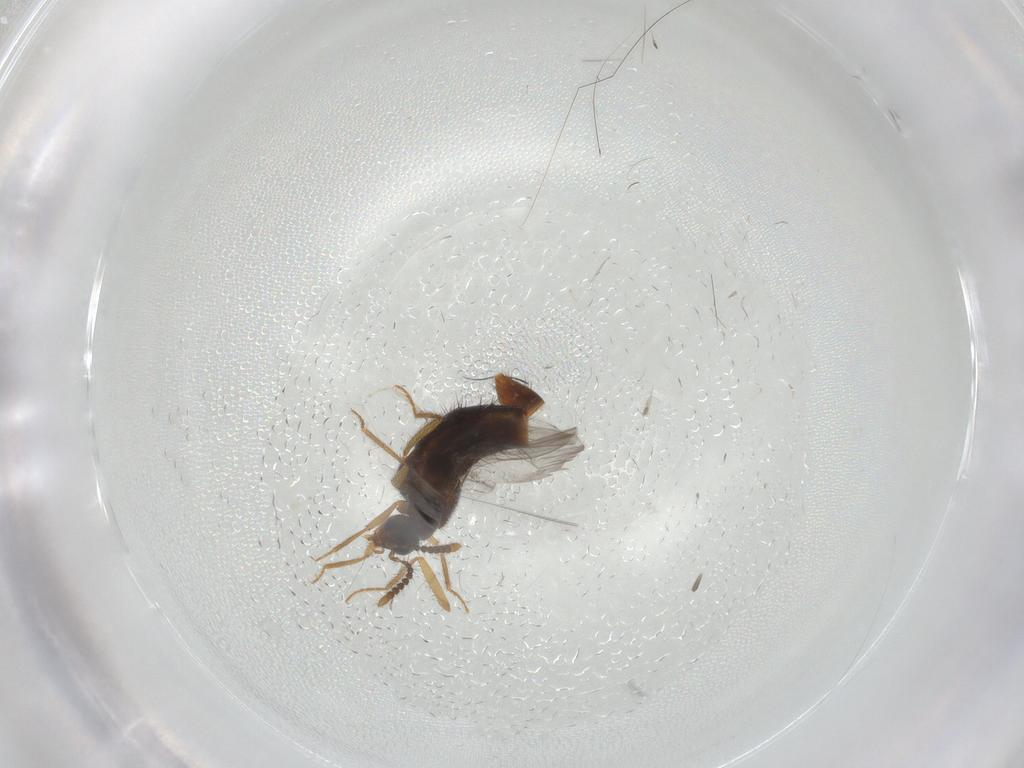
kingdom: Animalia
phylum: Arthropoda
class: Insecta
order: Coleoptera
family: Staphylinidae
